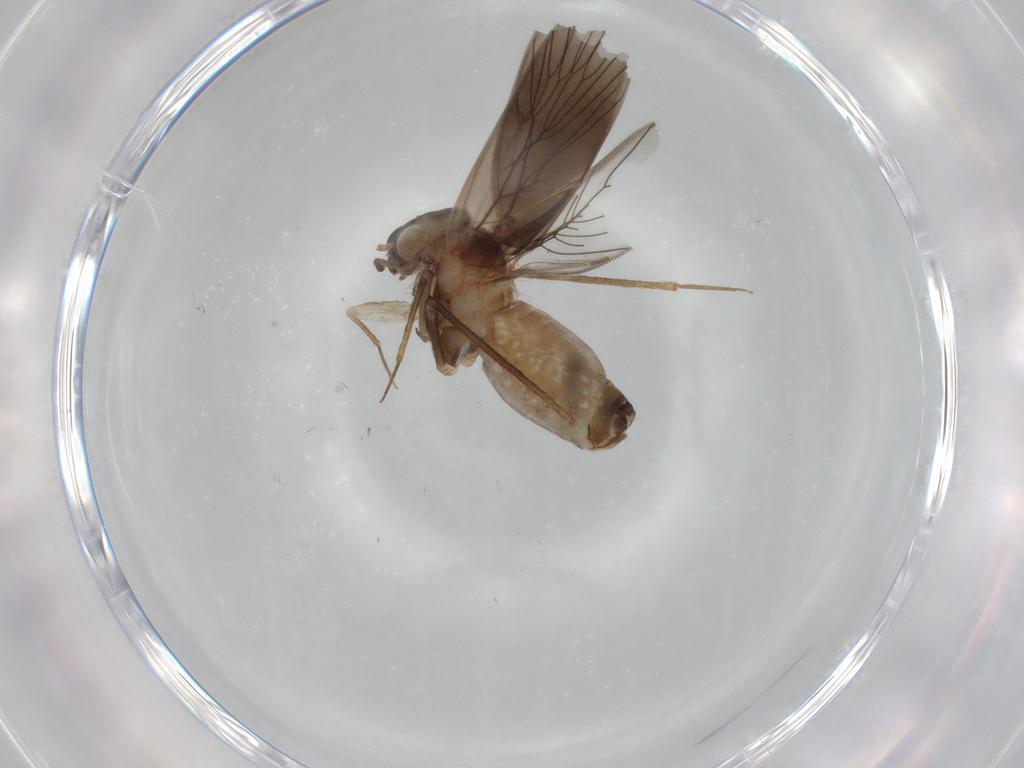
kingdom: Animalia
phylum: Arthropoda
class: Insecta
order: Psocodea
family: Lepidopsocidae
